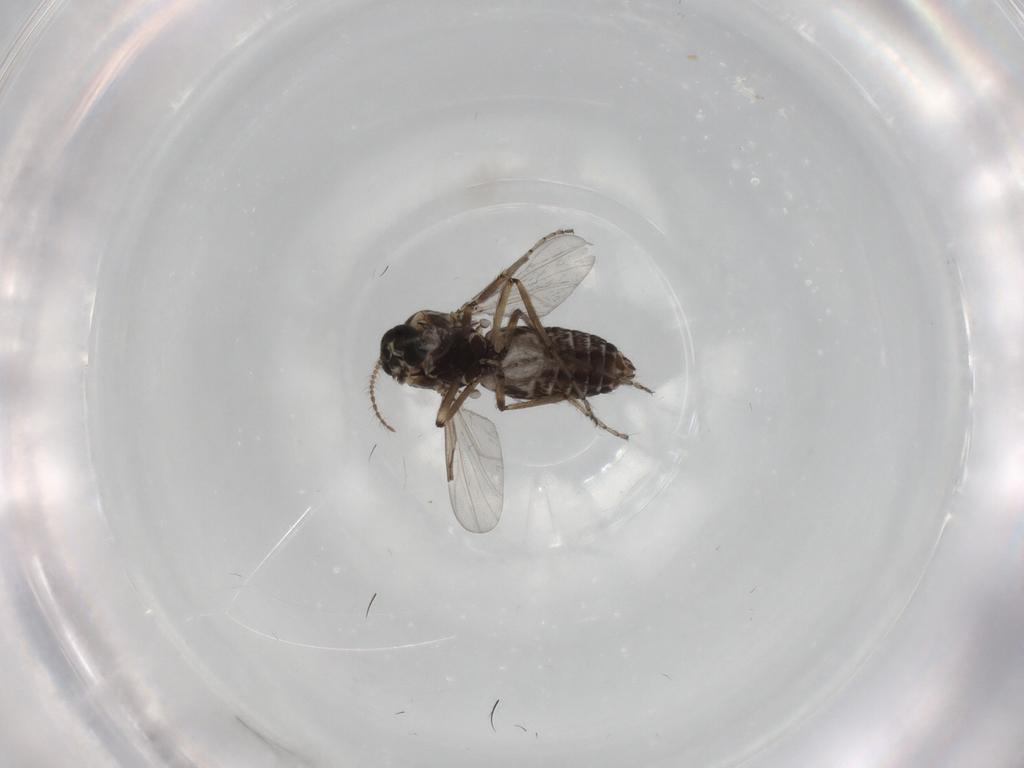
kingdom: Animalia
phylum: Arthropoda
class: Insecta
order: Diptera
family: Ceratopogonidae
